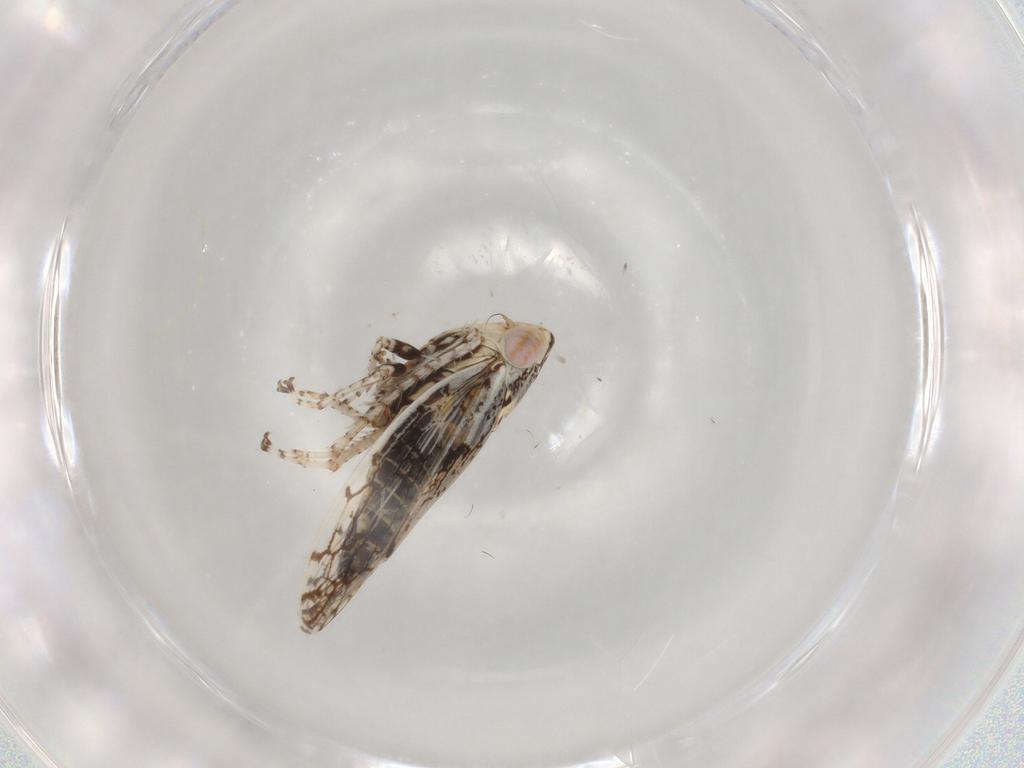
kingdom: Animalia
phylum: Arthropoda
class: Insecta
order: Hemiptera
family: Cicadellidae
